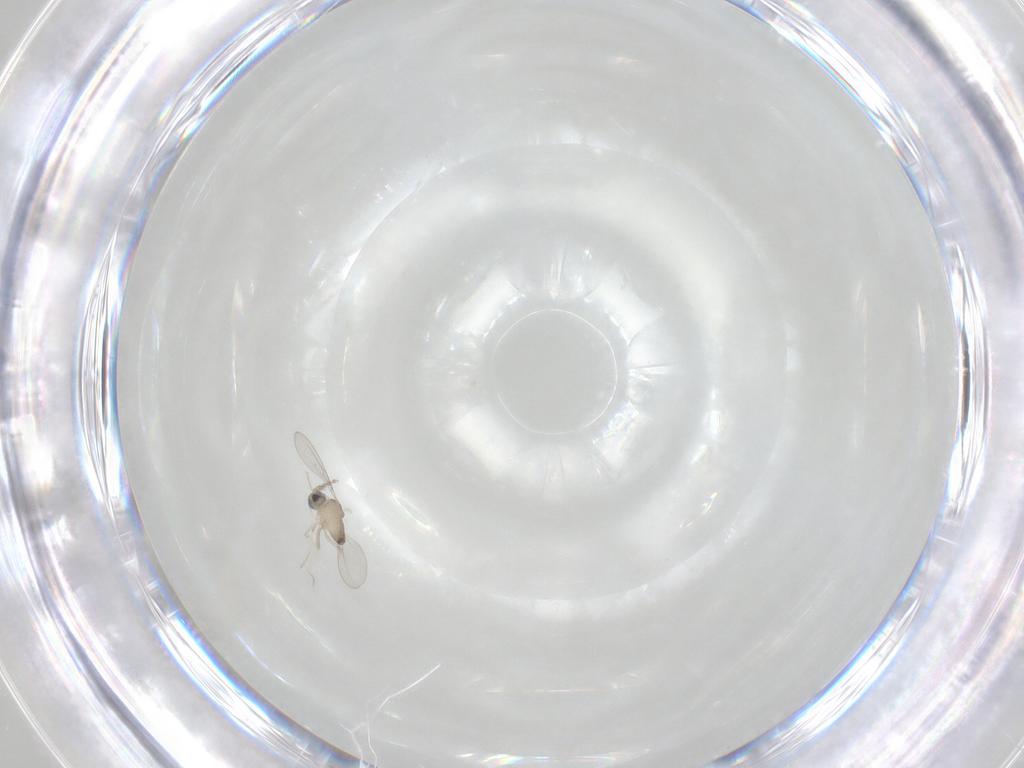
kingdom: Animalia
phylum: Arthropoda
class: Insecta
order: Diptera
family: Cecidomyiidae
